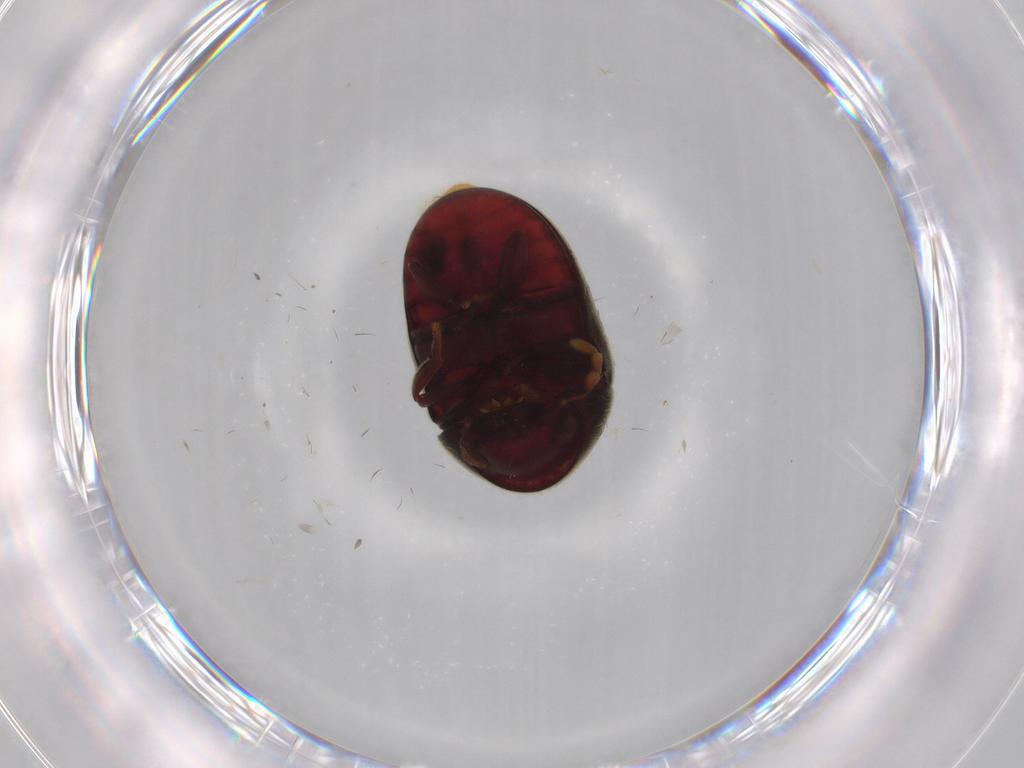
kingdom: Animalia
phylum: Arthropoda
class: Insecta
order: Coleoptera
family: Ptinidae
